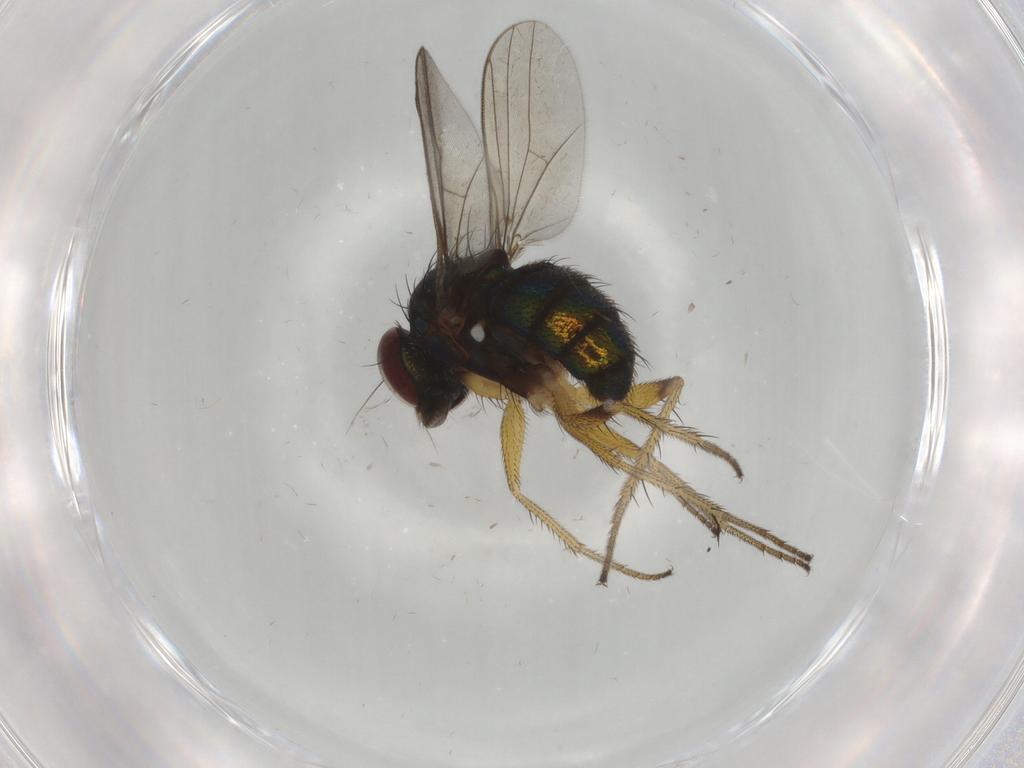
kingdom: Animalia
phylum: Arthropoda
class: Insecta
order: Diptera
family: Dolichopodidae
